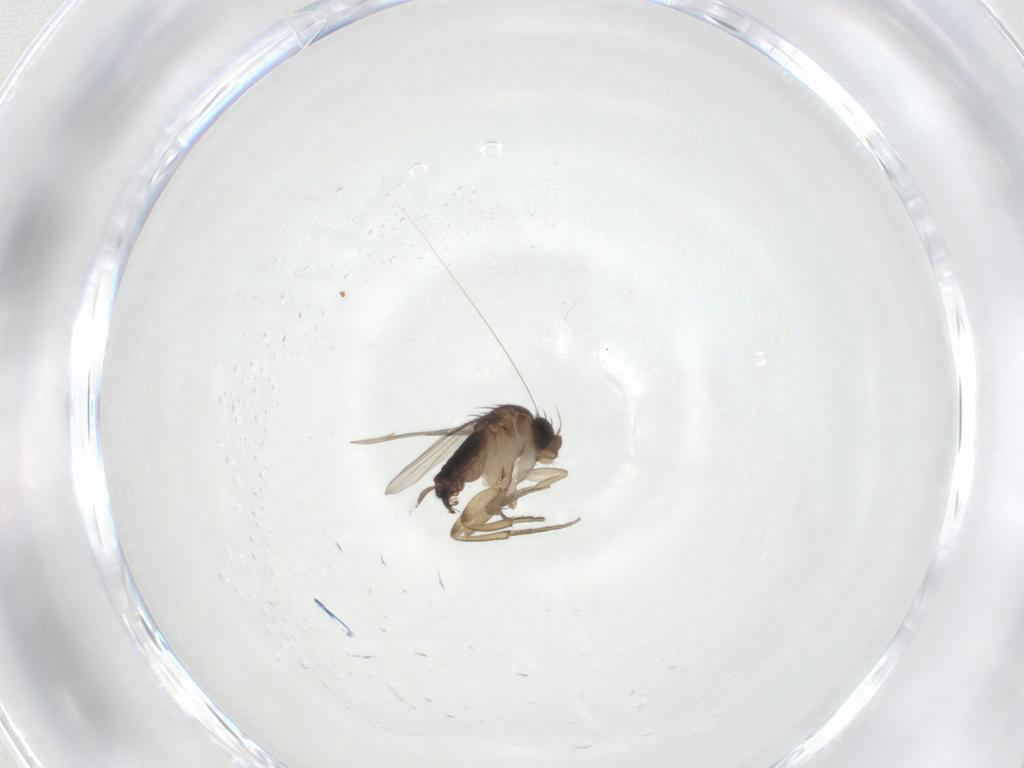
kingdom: Animalia
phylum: Arthropoda
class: Insecta
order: Diptera
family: Phoridae
